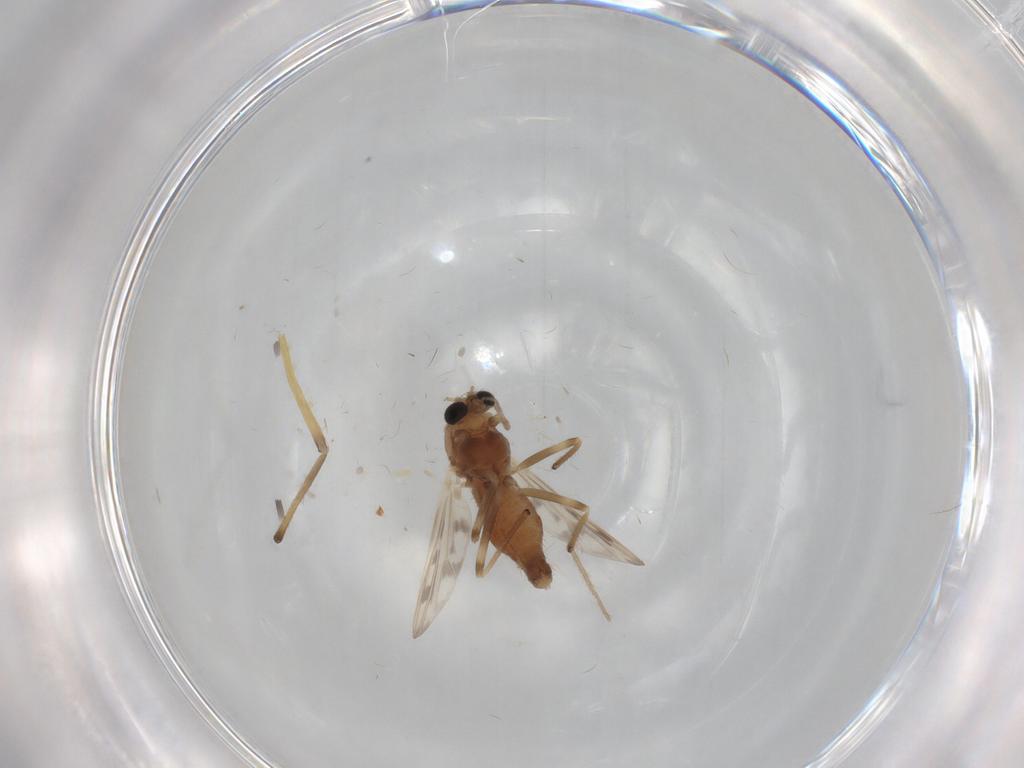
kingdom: Animalia
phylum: Arthropoda
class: Insecta
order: Diptera
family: Chironomidae
